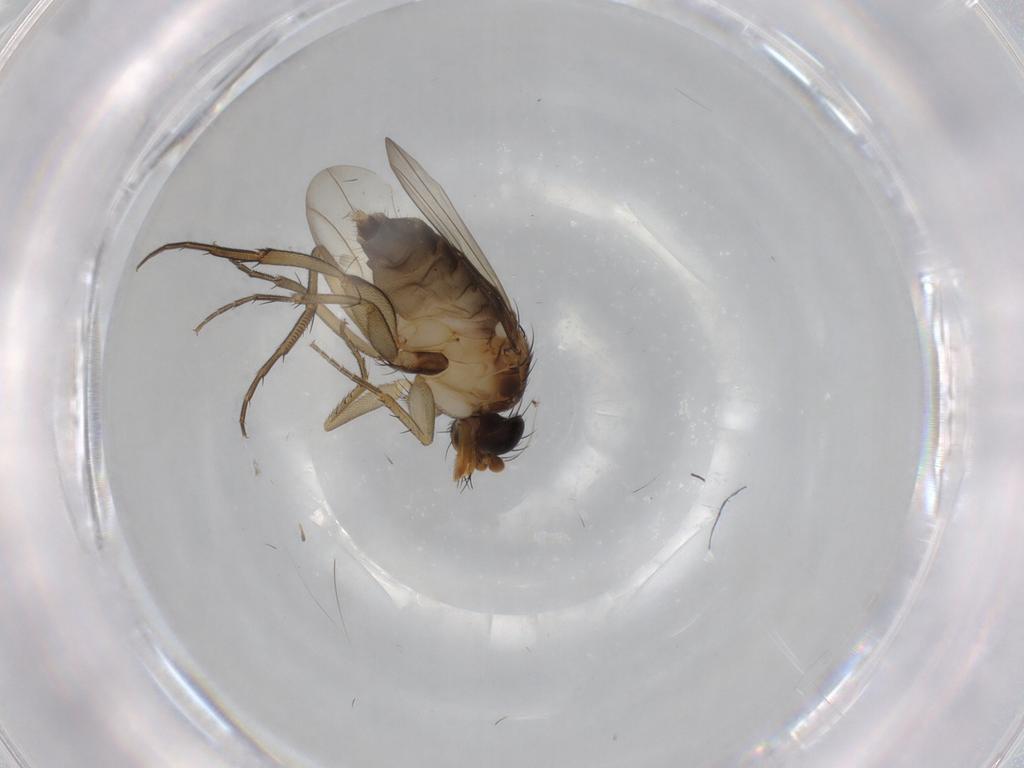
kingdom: Animalia
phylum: Arthropoda
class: Insecta
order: Diptera
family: Phoridae
